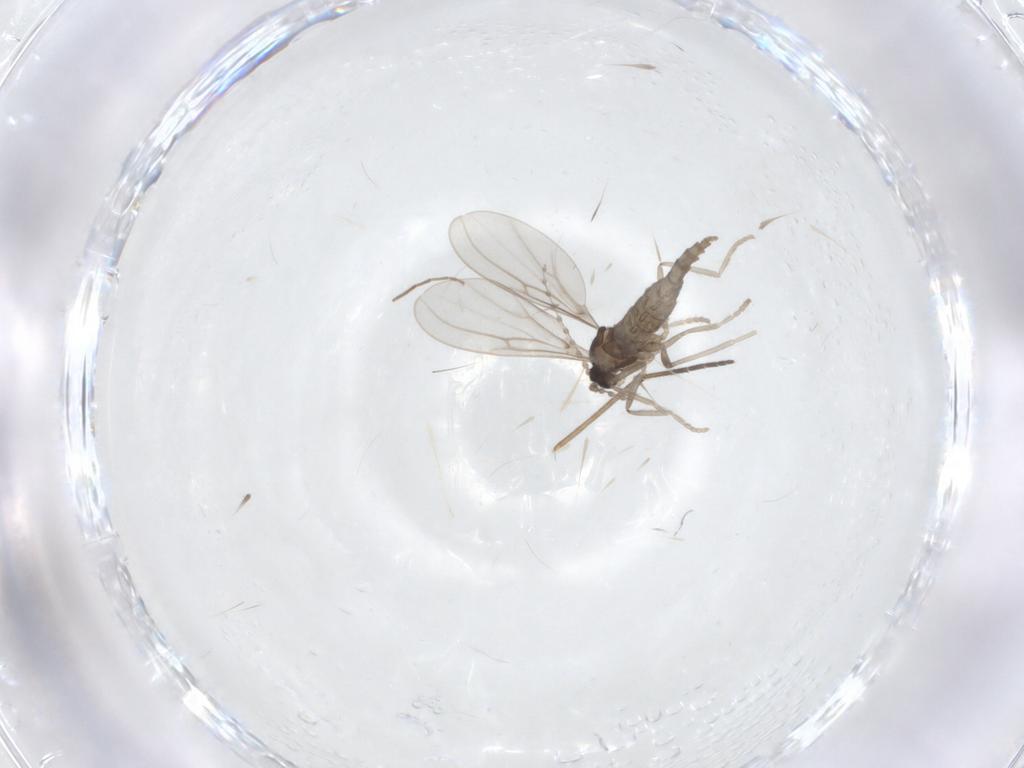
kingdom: Animalia
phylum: Arthropoda
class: Insecta
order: Diptera
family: Cecidomyiidae
